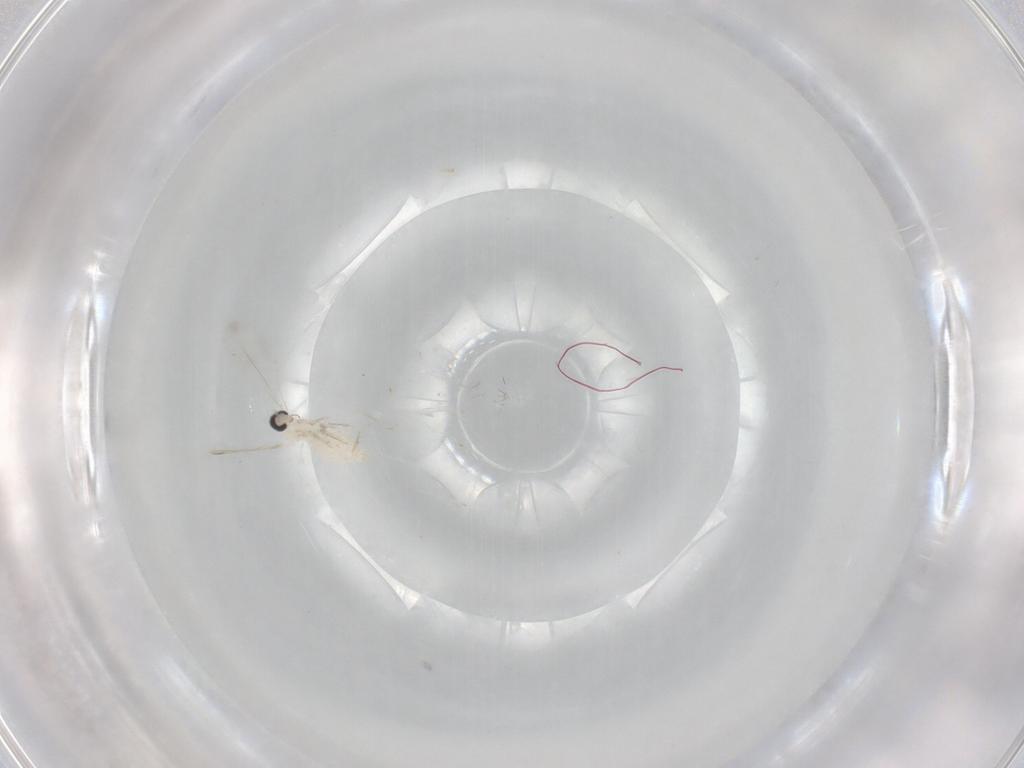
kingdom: Animalia
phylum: Arthropoda
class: Insecta
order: Diptera
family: Cecidomyiidae
